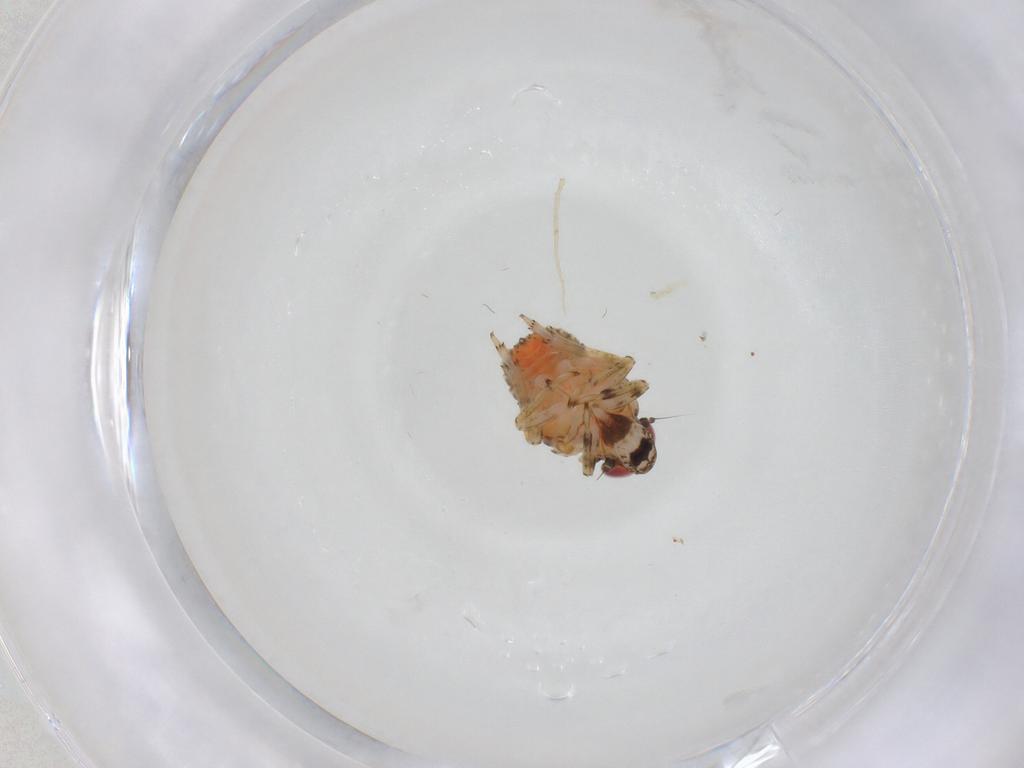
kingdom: Animalia
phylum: Arthropoda
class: Insecta
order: Hemiptera
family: Issidae
